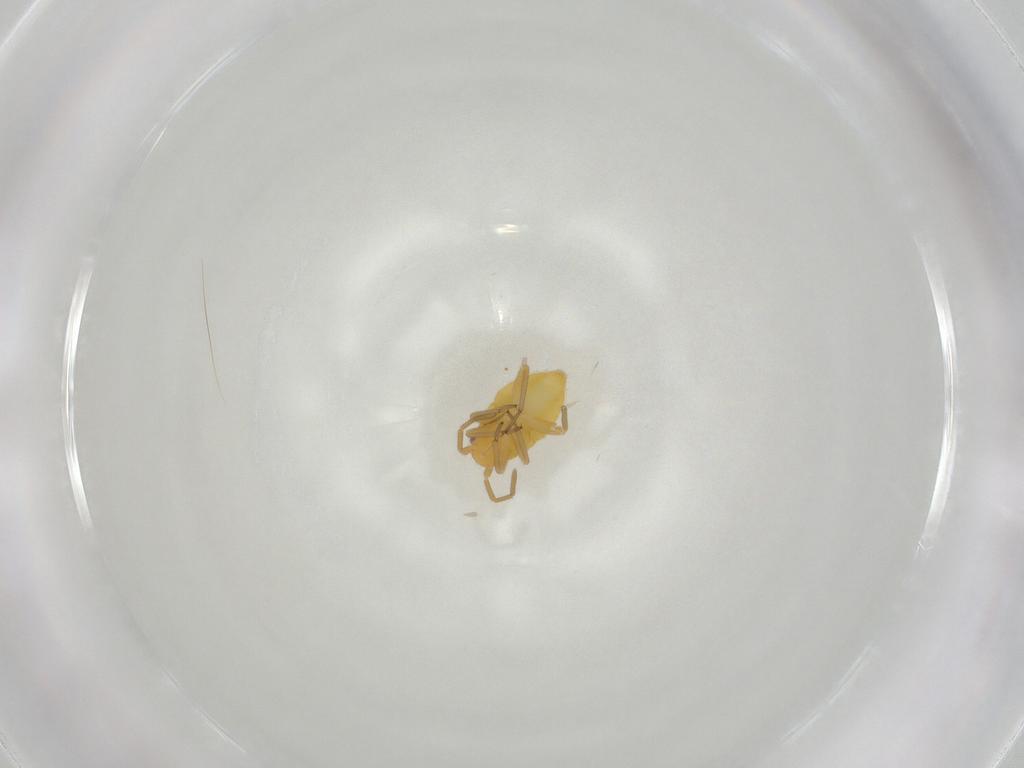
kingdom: Animalia
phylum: Arthropoda
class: Insecta
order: Hemiptera
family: Miridae
